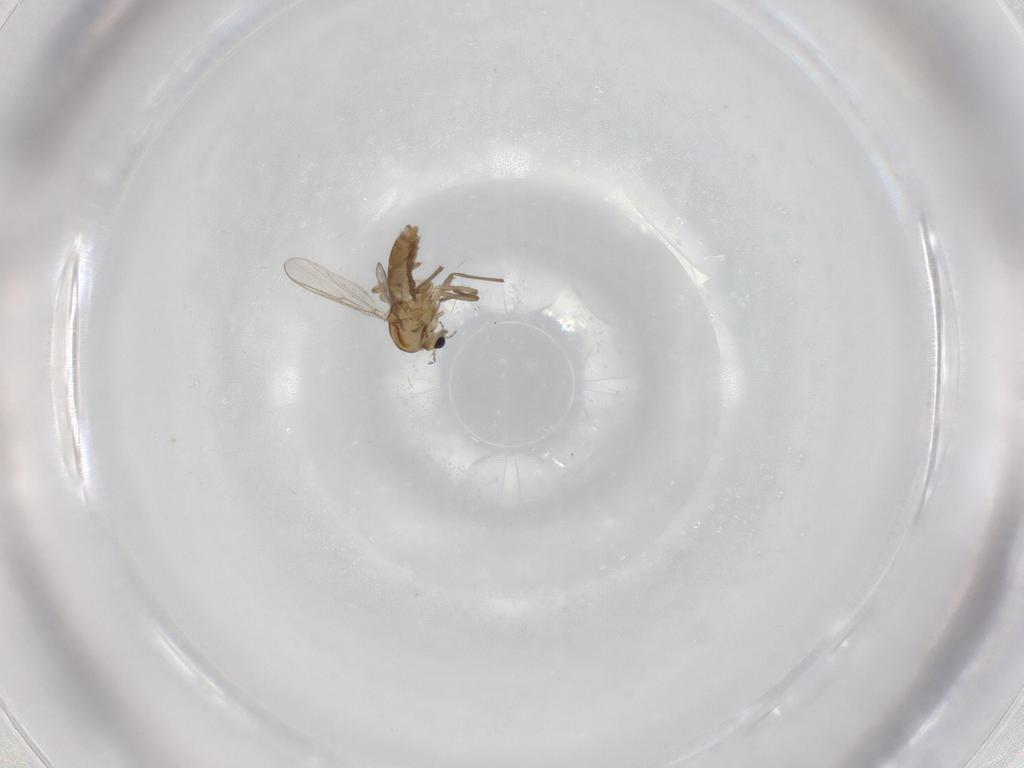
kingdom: Animalia
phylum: Arthropoda
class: Insecta
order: Diptera
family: Chironomidae
